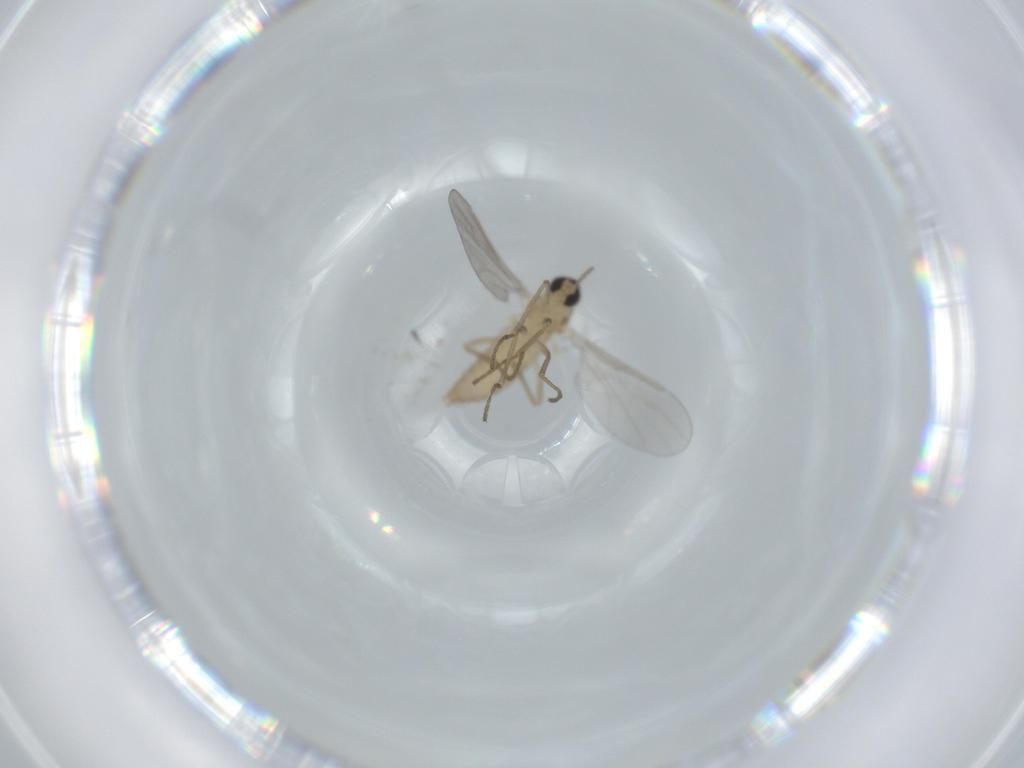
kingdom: Animalia
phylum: Arthropoda
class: Insecta
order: Diptera
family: Cecidomyiidae
